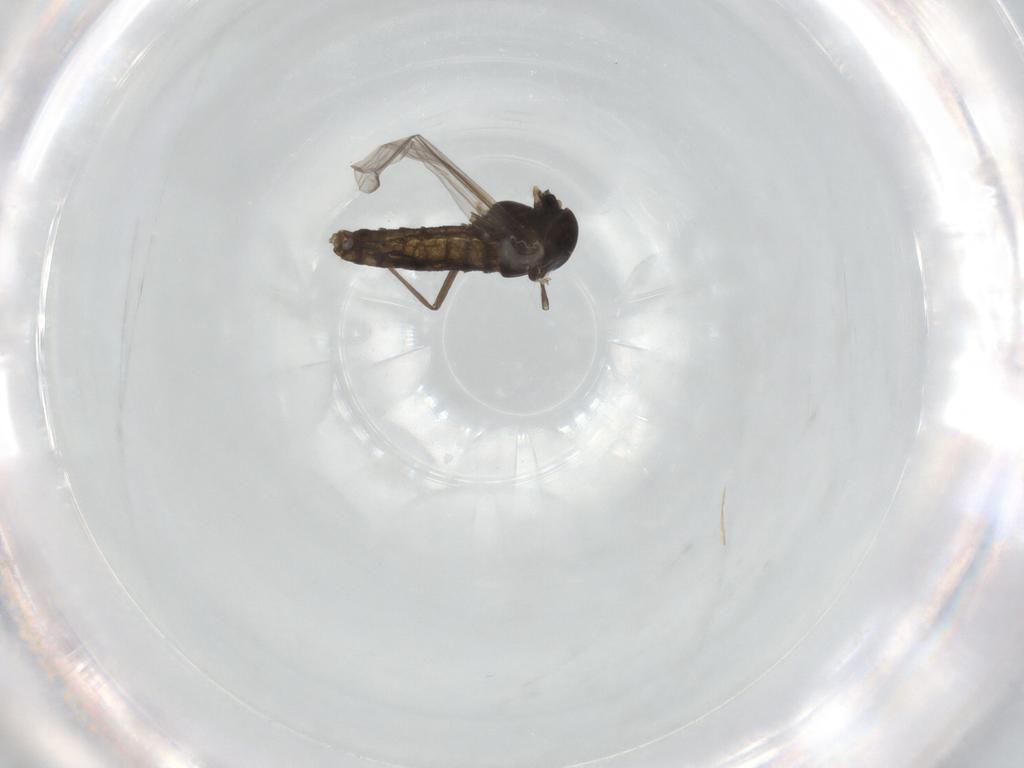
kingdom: Animalia
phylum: Arthropoda
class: Insecta
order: Diptera
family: Chironomidae
